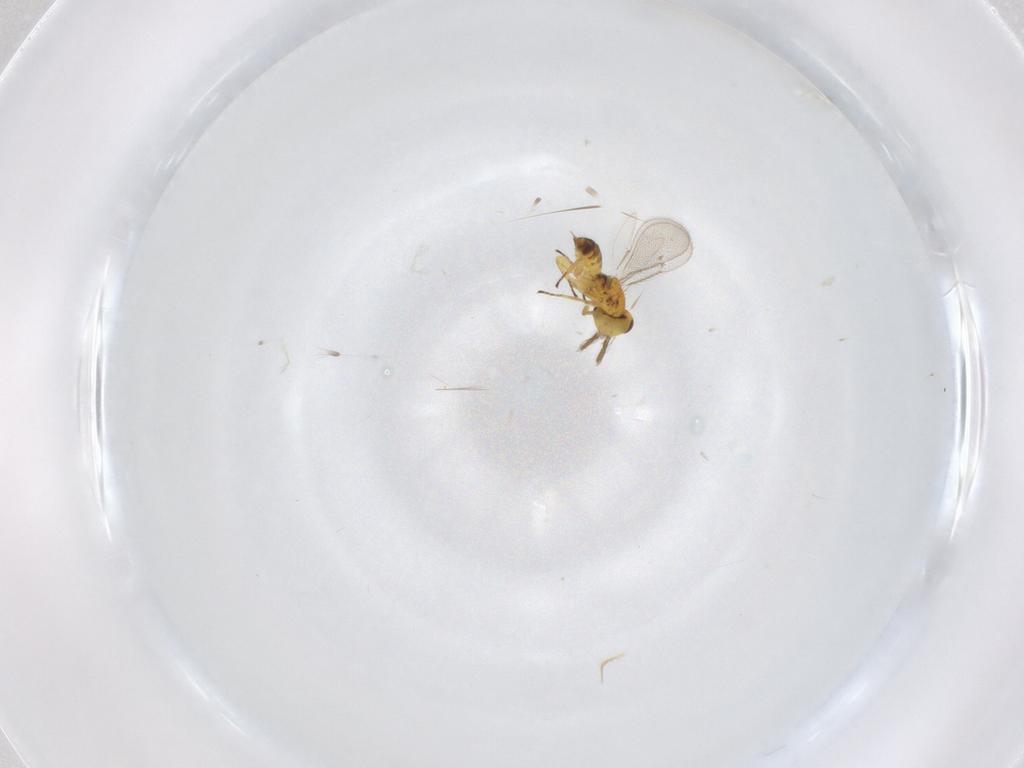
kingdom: Animalia
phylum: Arthropoda
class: Insecta
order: Hymenoptera
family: Eulophidae
